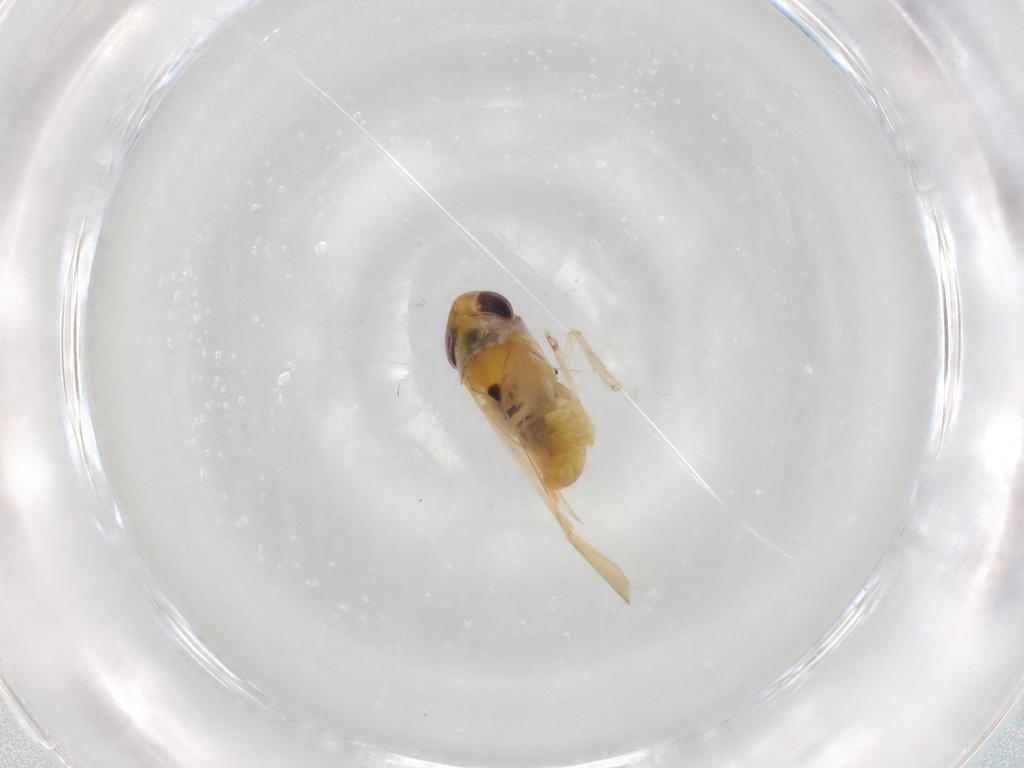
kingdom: Animalia
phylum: Arthropoda
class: Insecta
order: Hemiptera
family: Cicadellidae
